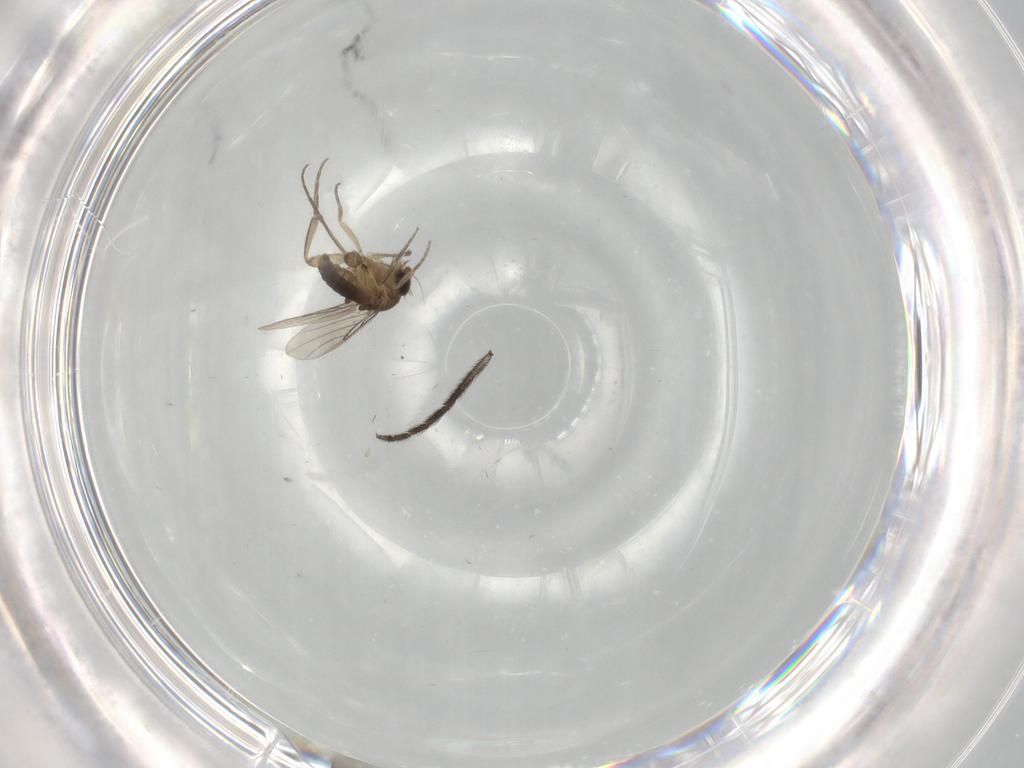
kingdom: Animalia
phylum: Arthropoda
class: Insecta
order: Diptera
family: Phoridae
